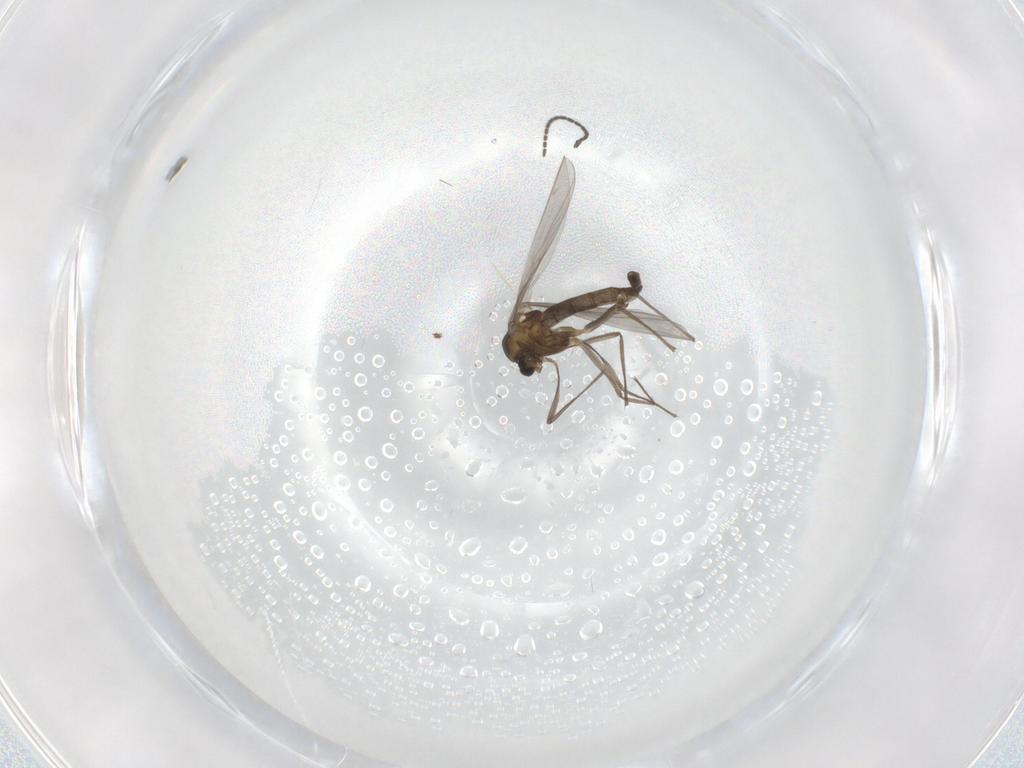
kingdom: Animalia
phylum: Arthropoda
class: Insecta
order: Diptera
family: Chironomidae
